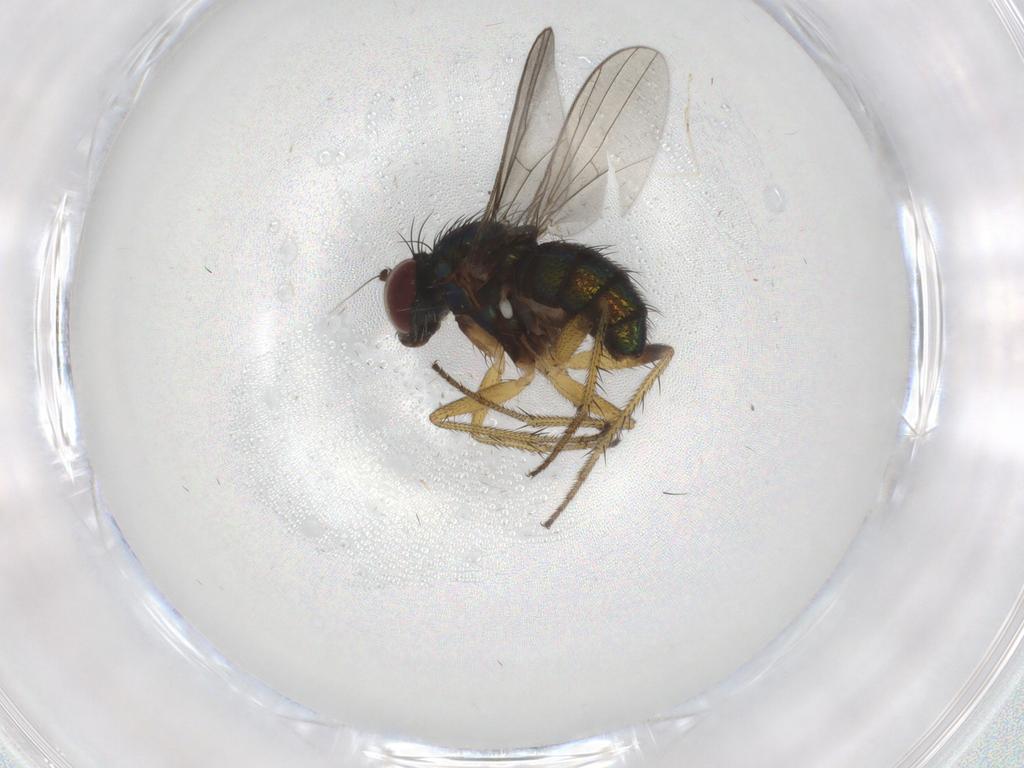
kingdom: Animalia
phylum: Arthropoda
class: Insecta
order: Diptera
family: Dolichopodidae
